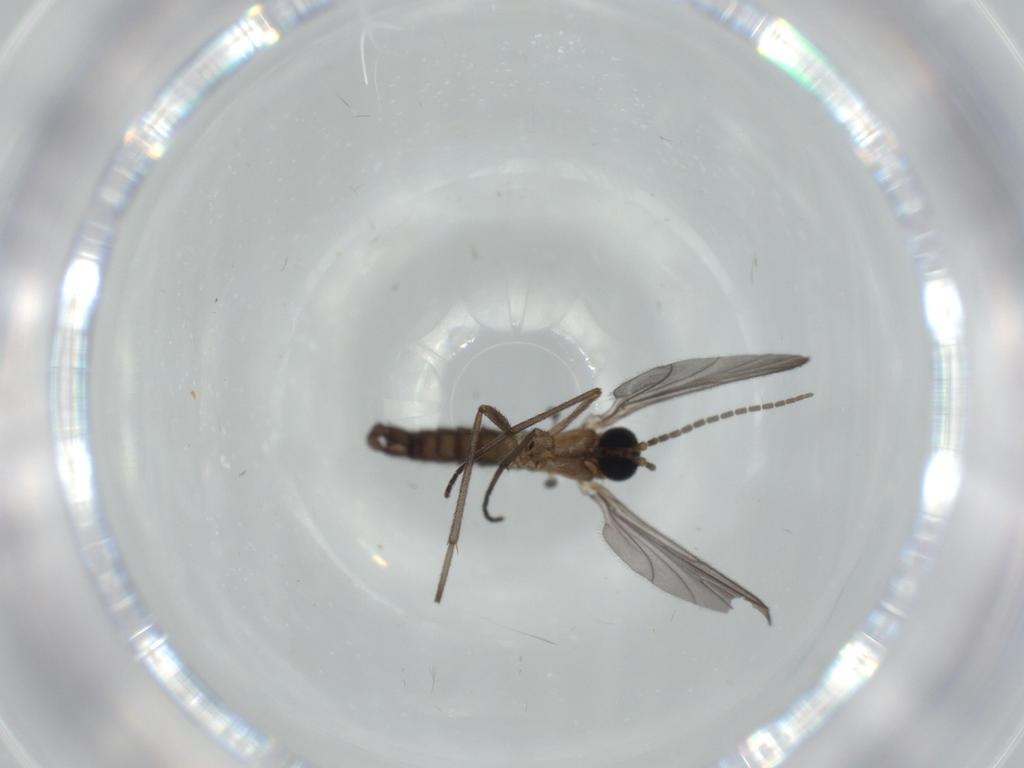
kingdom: Animalia
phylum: Arthropoda
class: Insecta
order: Diptera
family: Sciaridae
